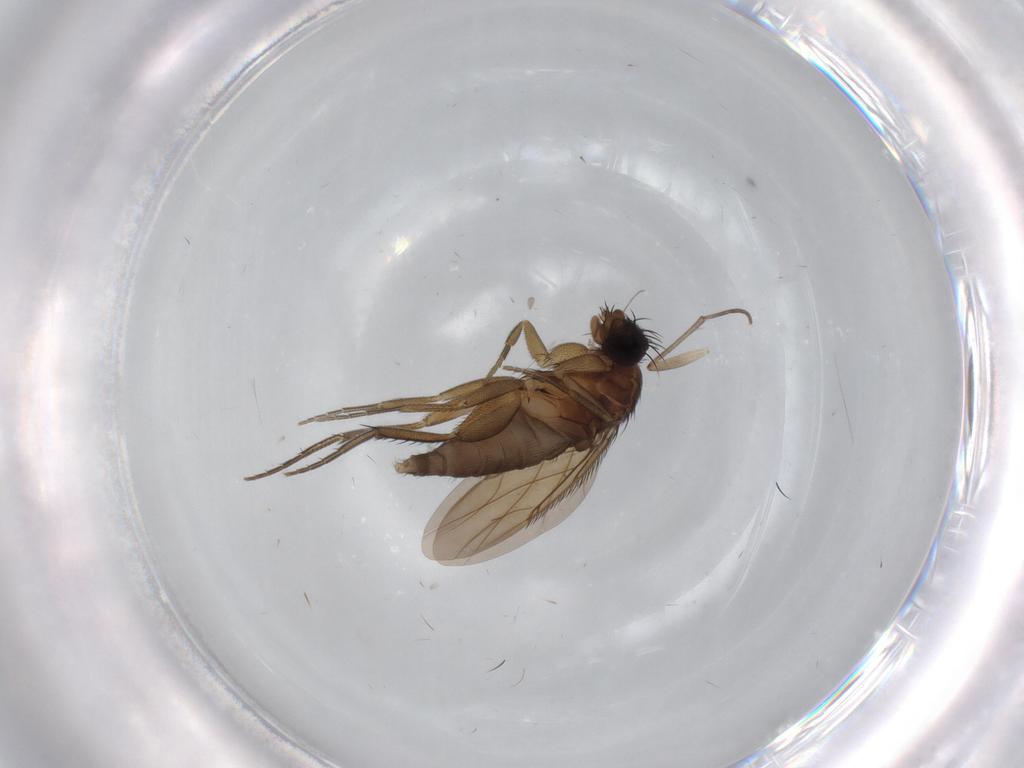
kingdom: Animalia
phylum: Arthropoda
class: Insecta
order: Diptera
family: Phoridae
